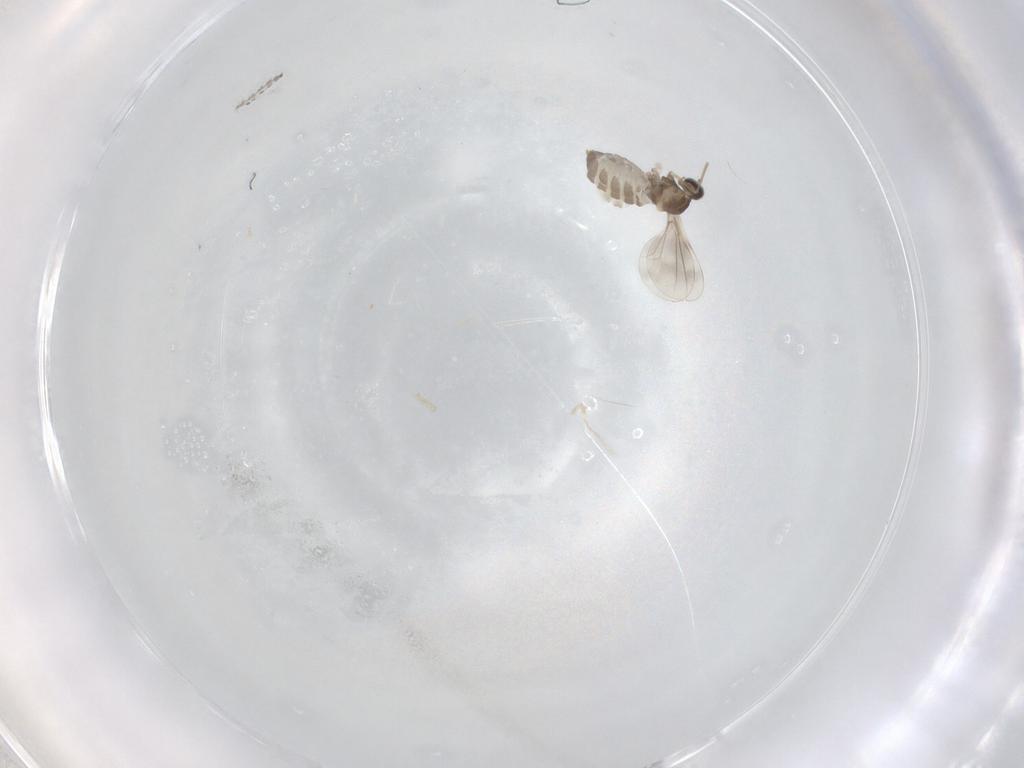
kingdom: Animalia
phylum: Arthropoda
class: Insecta
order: Diptera
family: Cecidomyiidae
